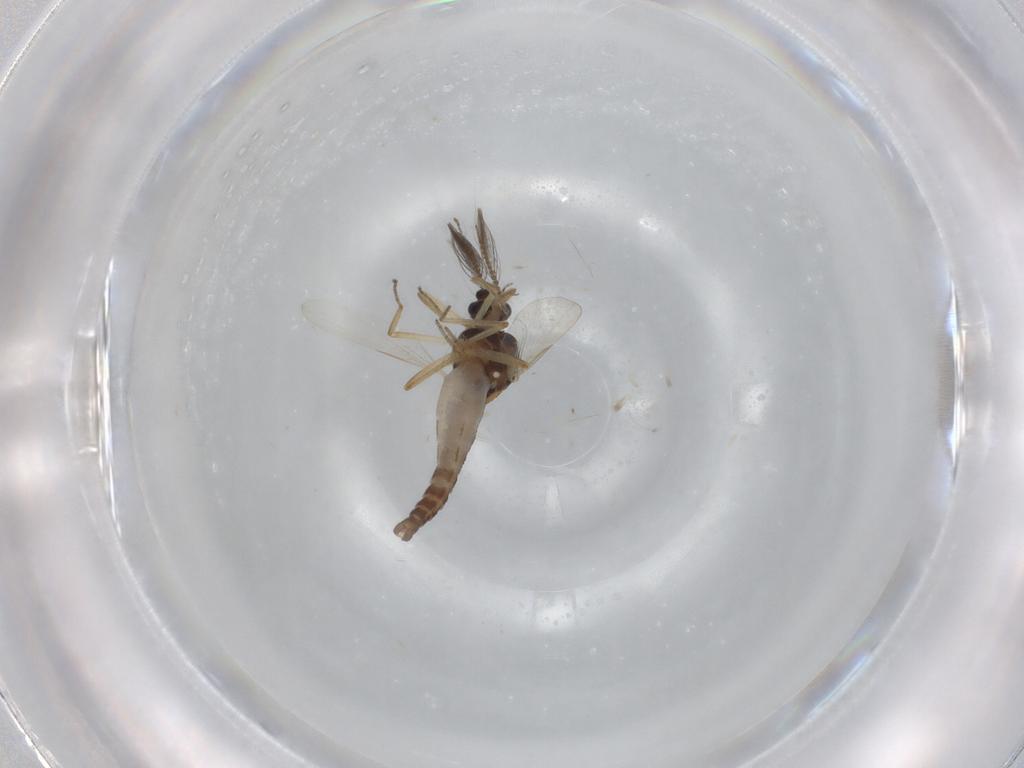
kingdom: Animalia
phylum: Arthropoda
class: Insecta
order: Diptera
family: Ceratopogonidae
